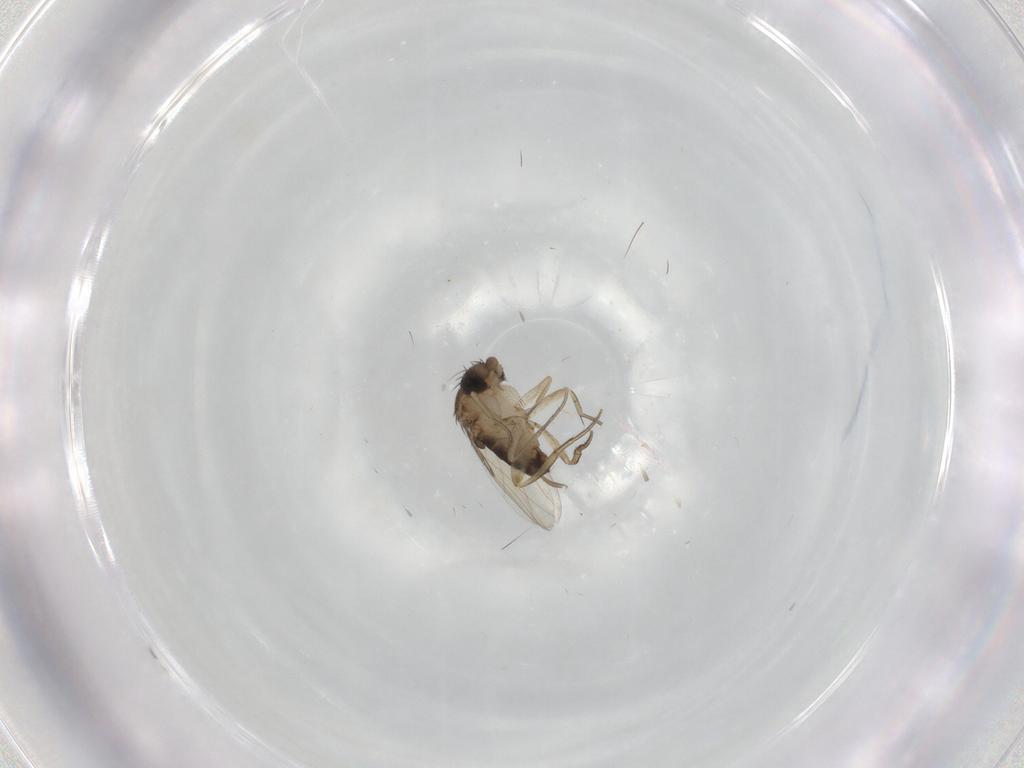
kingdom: Animalia
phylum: Arthropoda
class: Insecta
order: Diptera
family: Phoridae
